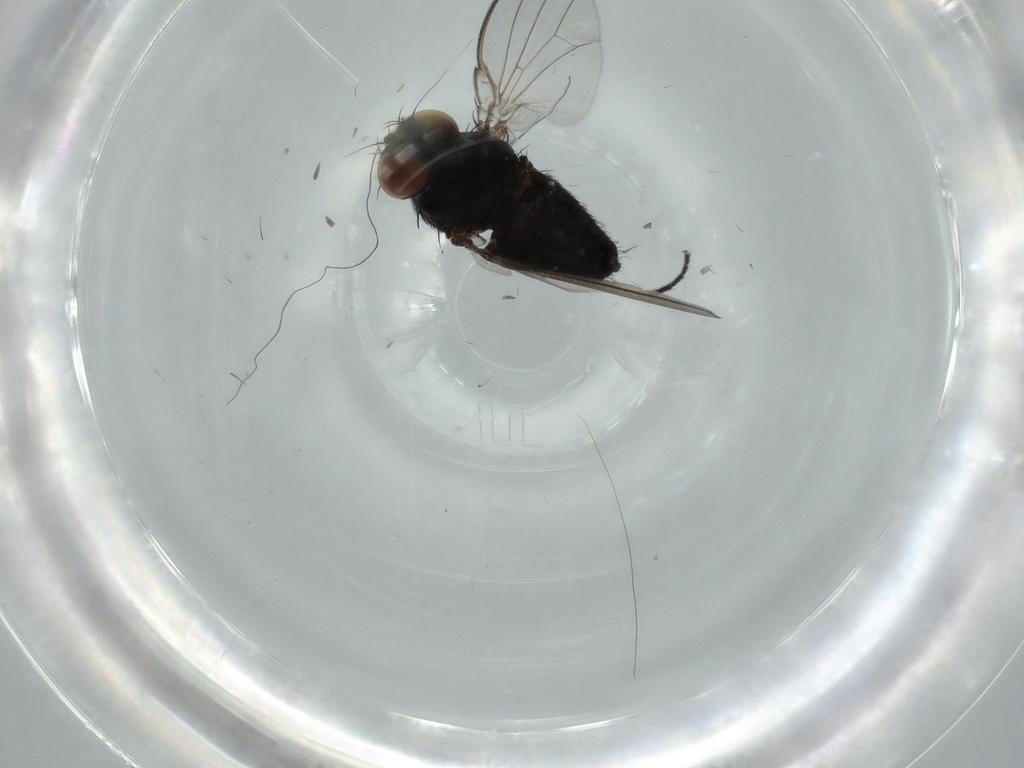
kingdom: Animalia
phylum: Arthropoda
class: Insecta
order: Diptera
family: Milichiidae
